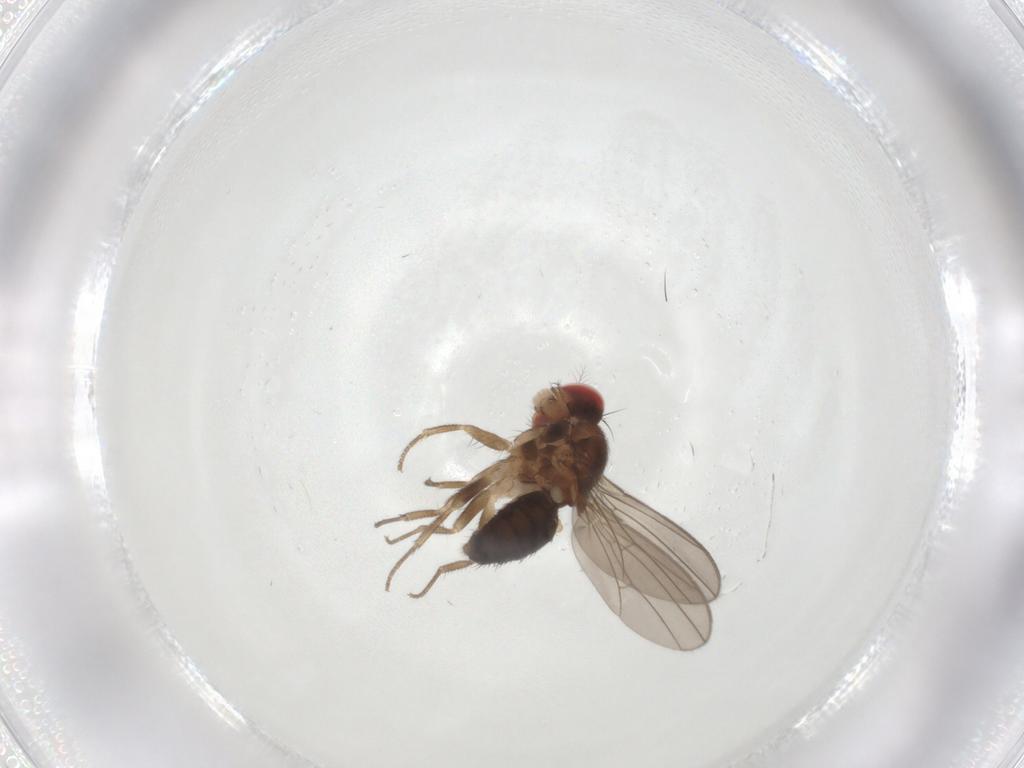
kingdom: Animalia
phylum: Arthropoda
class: Insecta
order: Diptera
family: Drosophilidae
